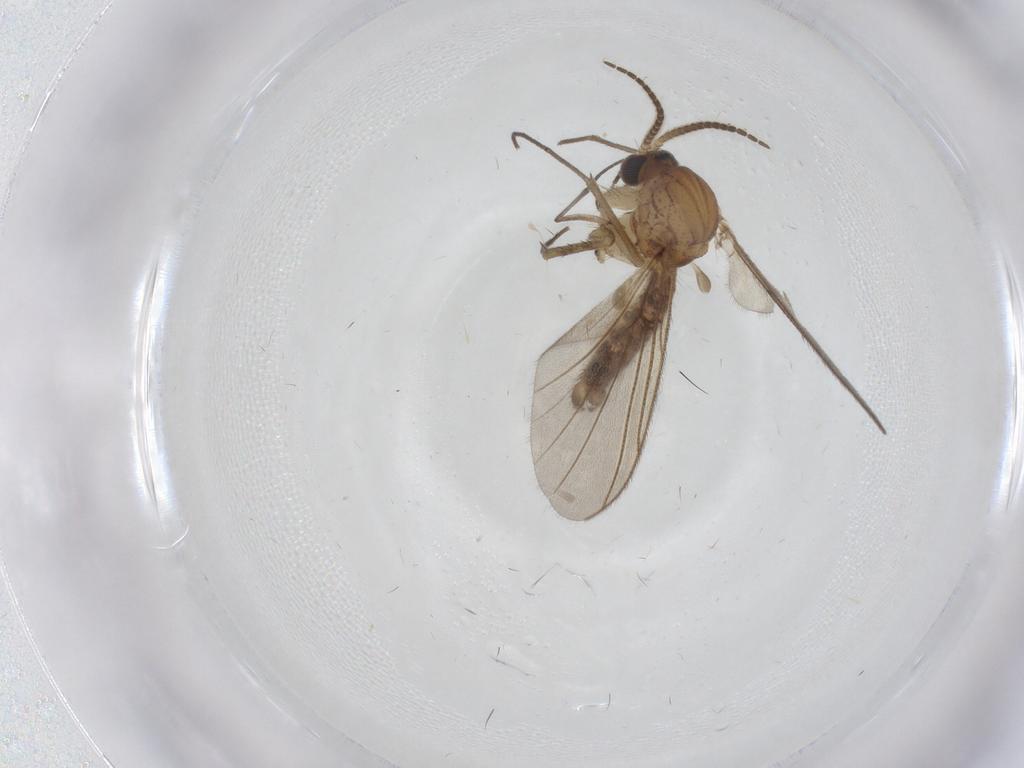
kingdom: Animalia
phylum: Arthropoda
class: Insecta
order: Diptera
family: Mycetophilidae
